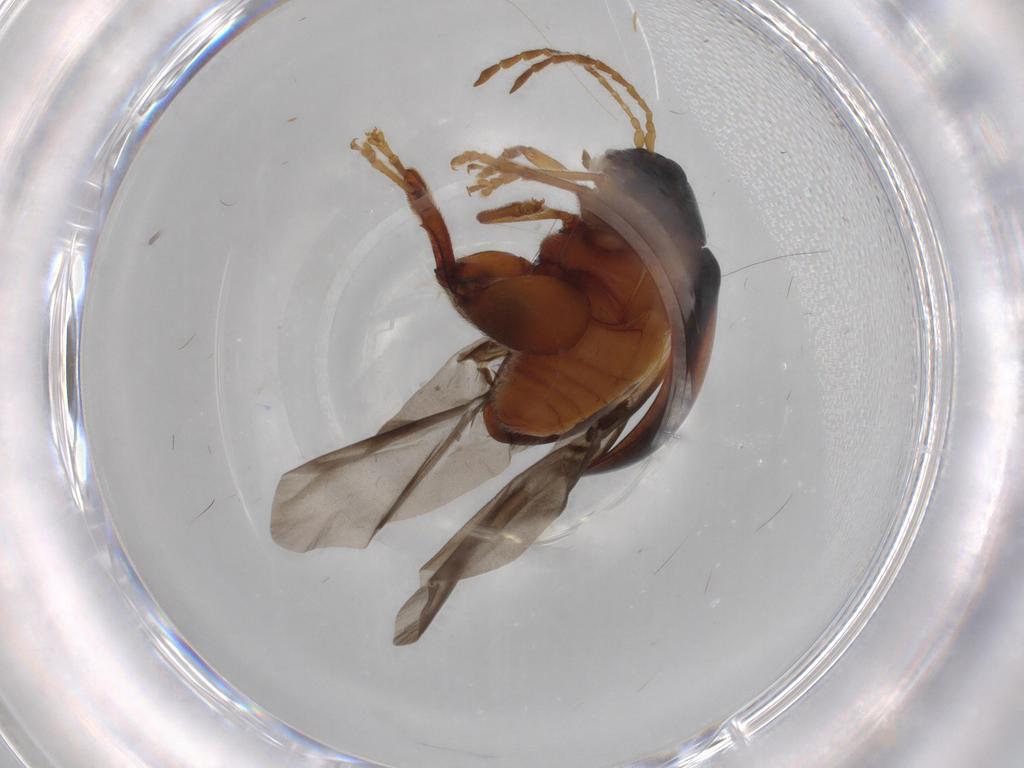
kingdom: Animalia
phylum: Arthropoda
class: Insecta
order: Coleoptera
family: Chrysomelidae
